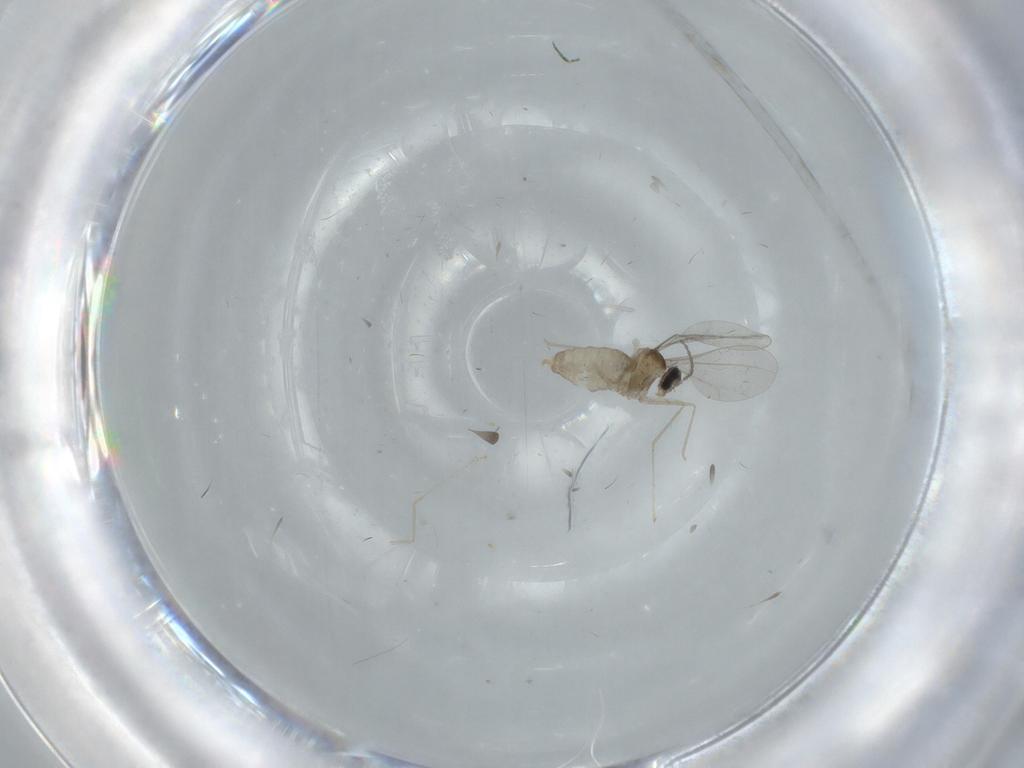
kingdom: Animalia
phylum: Arthropoda
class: Insecta
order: Diptera
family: Cecidomyiidae
